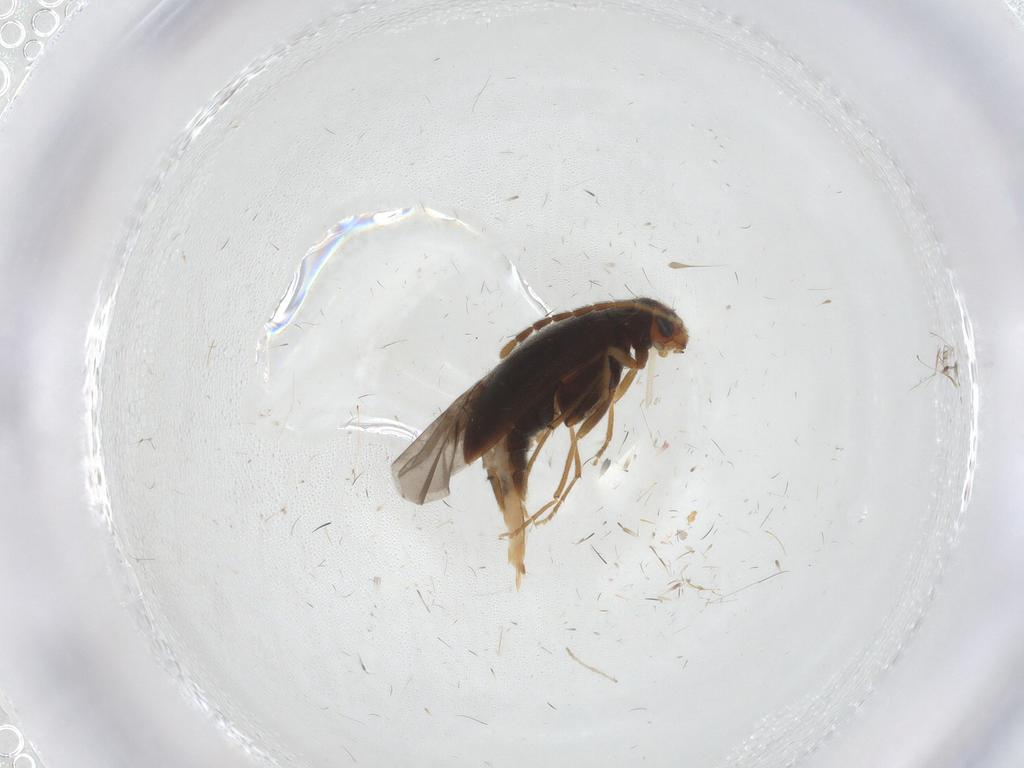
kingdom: Animalia
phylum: Arthropoda
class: Insecta
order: Coleoptera
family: Melandryidae
